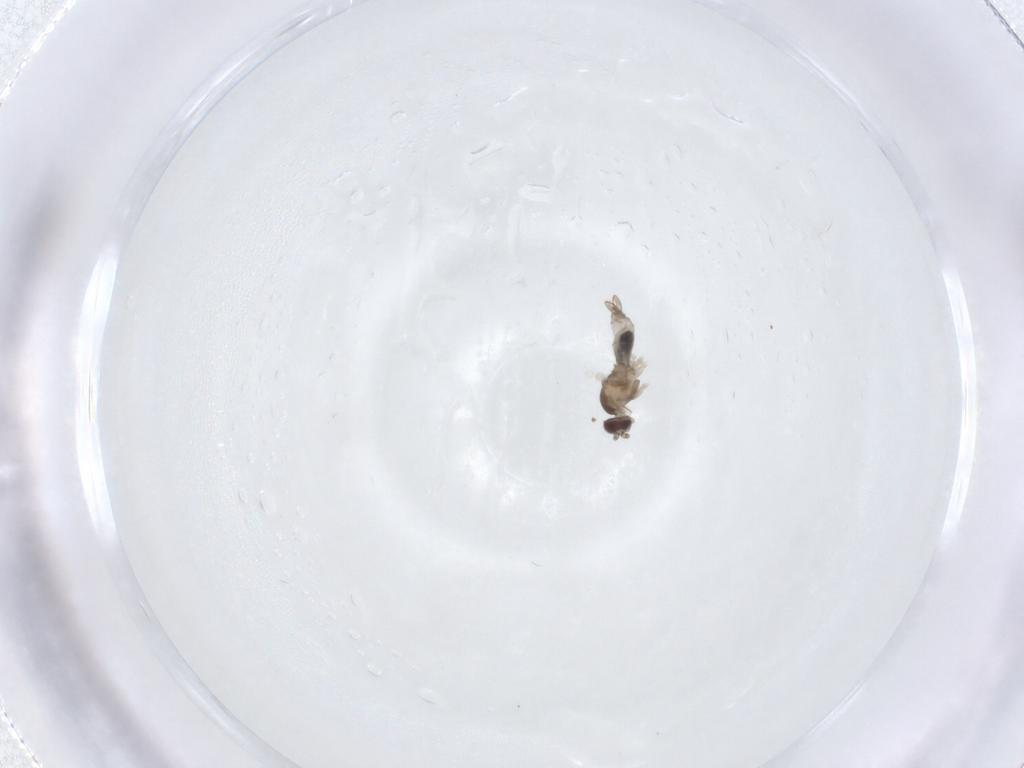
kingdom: Animalia
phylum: Arthropoda
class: Insecta
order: Diptera
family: Cecidomyiidae
